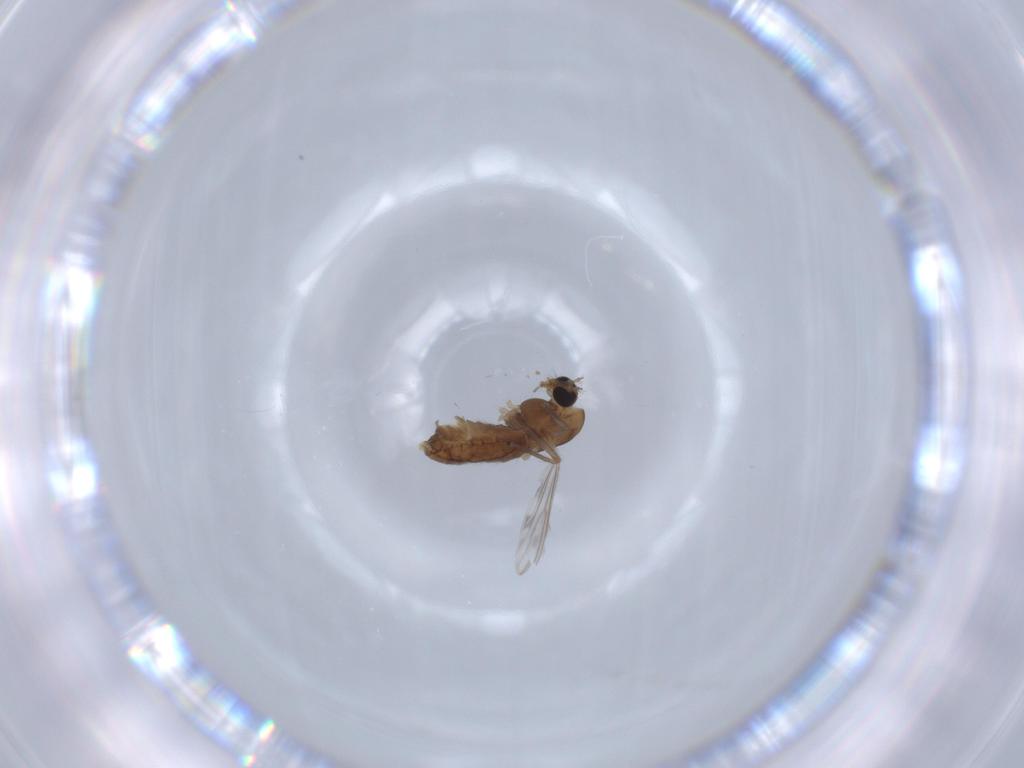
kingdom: Animalia
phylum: Arthropoda
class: Insecta
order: Diptera
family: Chironomidae
